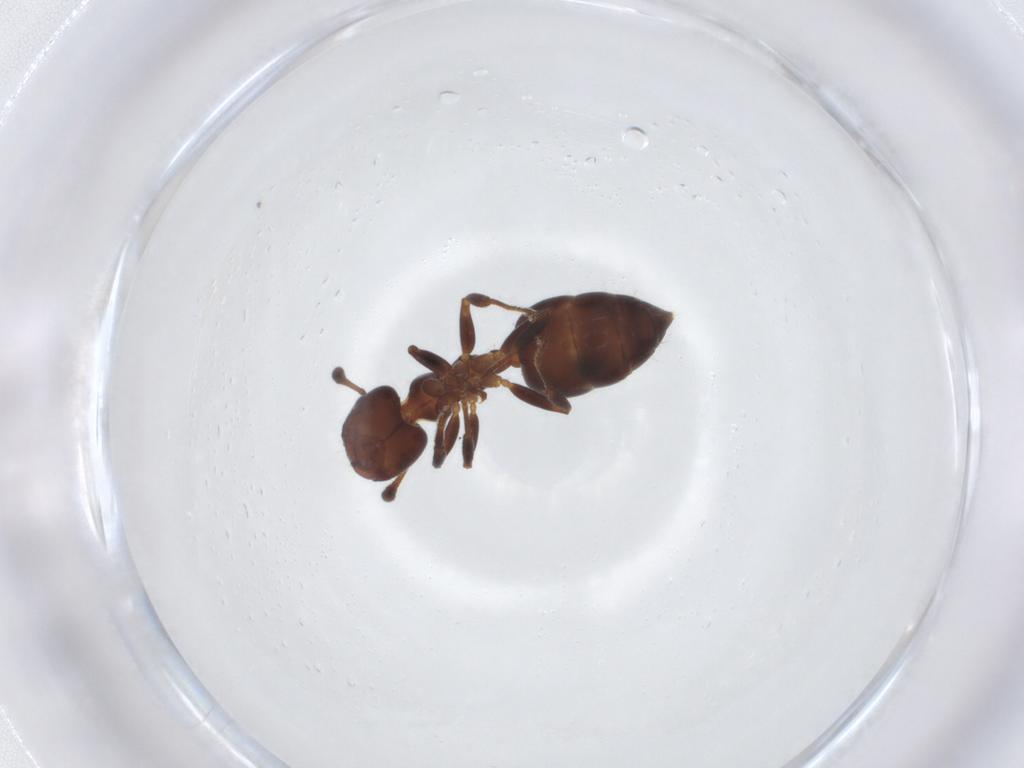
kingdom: Animalia
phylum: Arthropoda
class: Insecta
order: Hymenoptera
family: Formicidae
